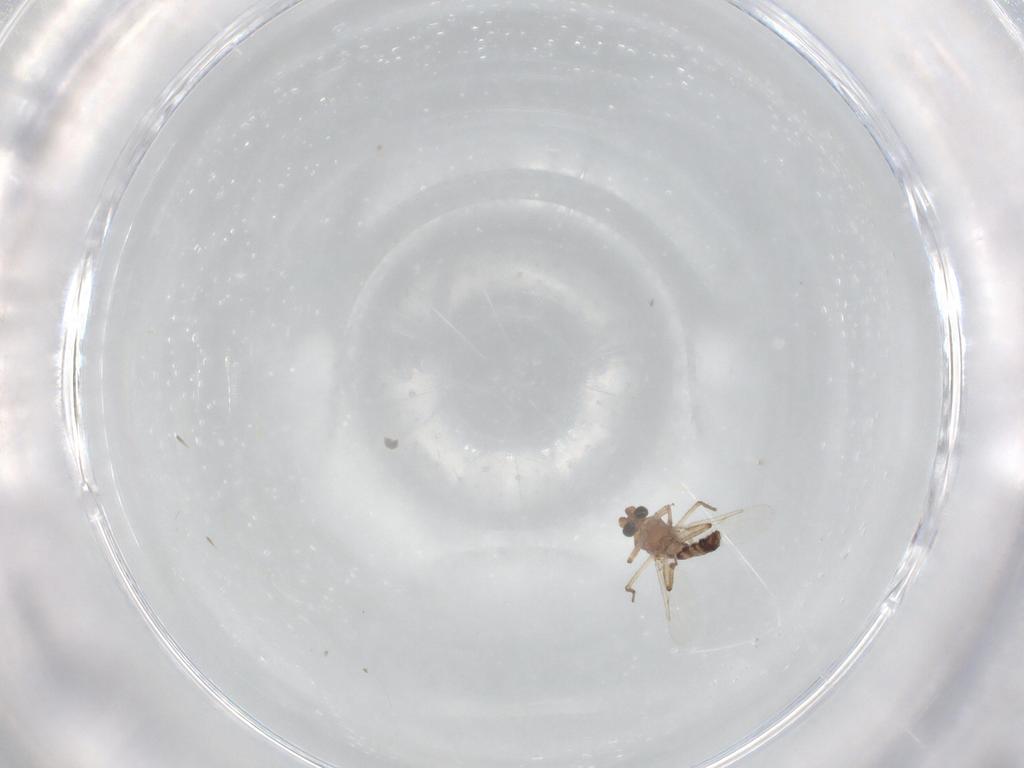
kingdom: Animalia
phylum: Arthropoda
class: Insecta
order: Diptera
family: Ceratopogonidae
